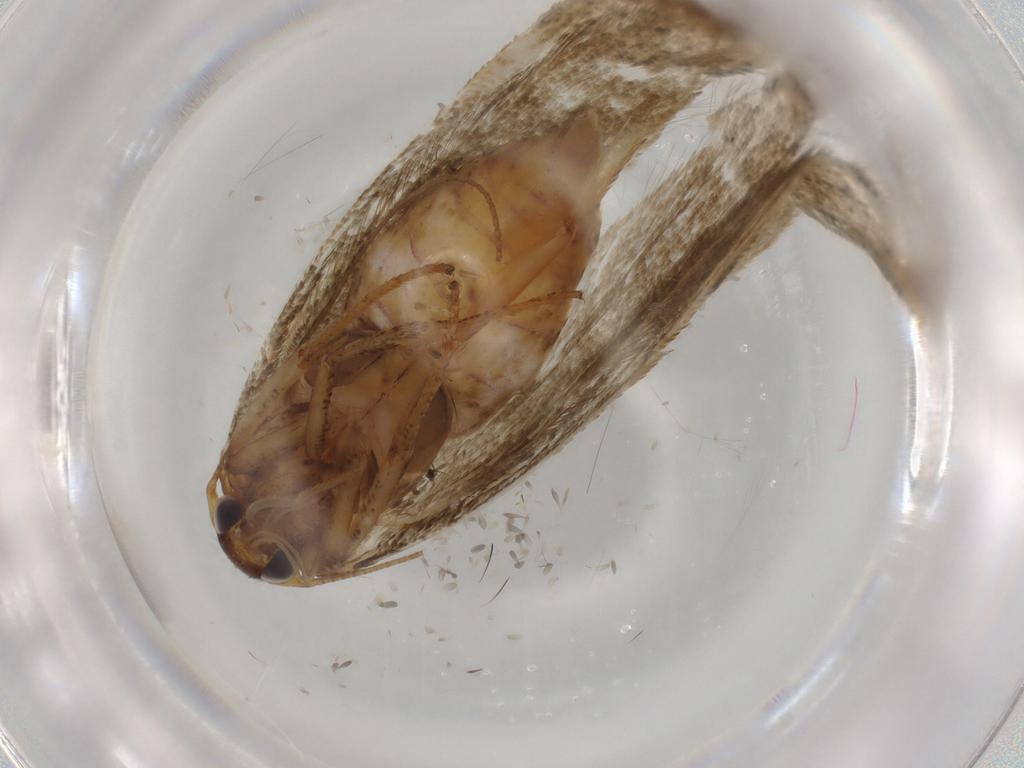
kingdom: Animalia
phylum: Arthropoda
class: Insecta
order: Lepidoptera
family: Blastobasidae
